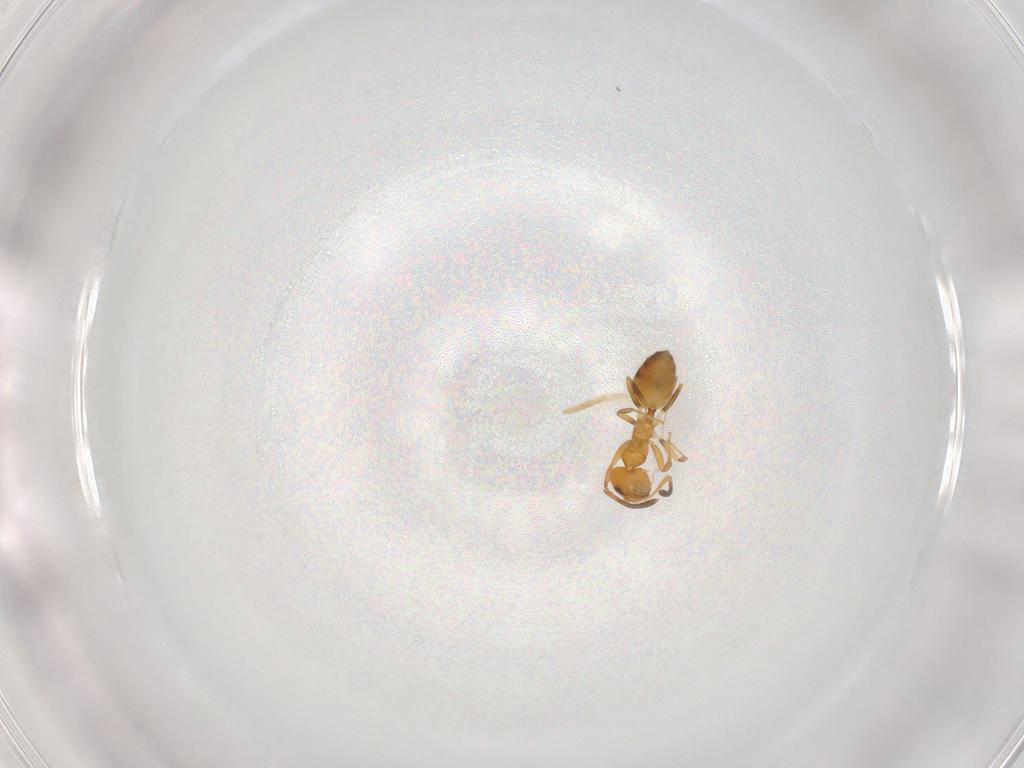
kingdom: Animalia
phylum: Arthropoda
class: Insecta
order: Hymenoptera
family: Formicidae
